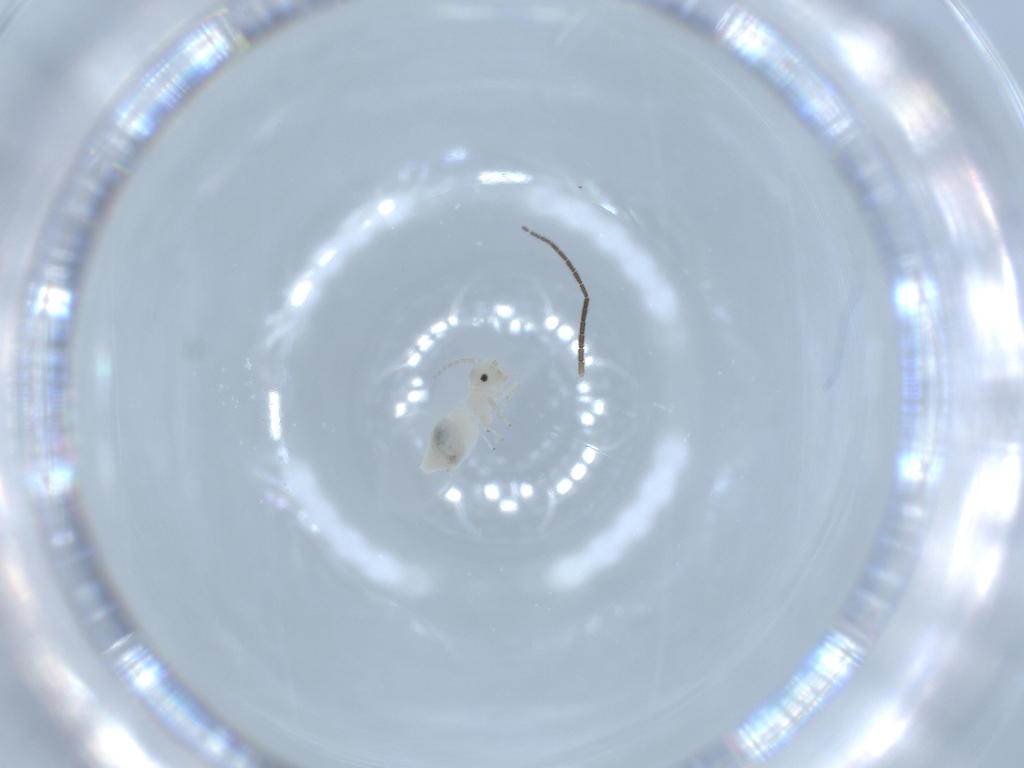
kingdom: Animalia
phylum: Arthropoda
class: Insecta
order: Psocodea
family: Caeciliusidae
